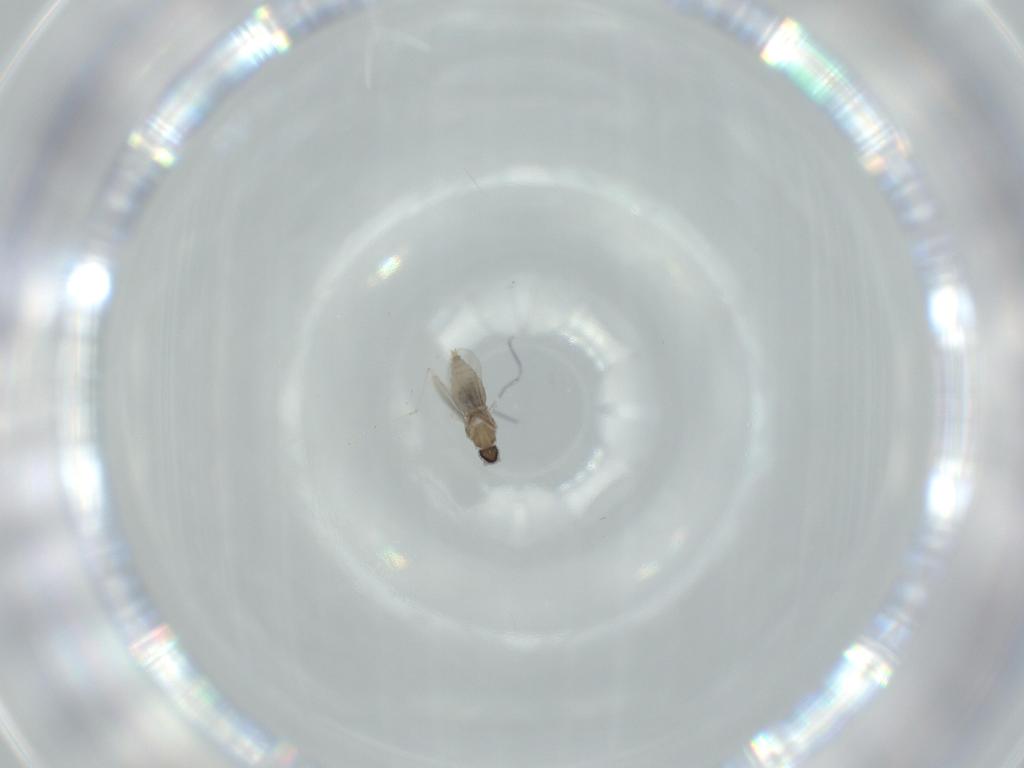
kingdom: Animalia
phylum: Arthropoda
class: Insecta
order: Diptera
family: Cecidomyiidae
